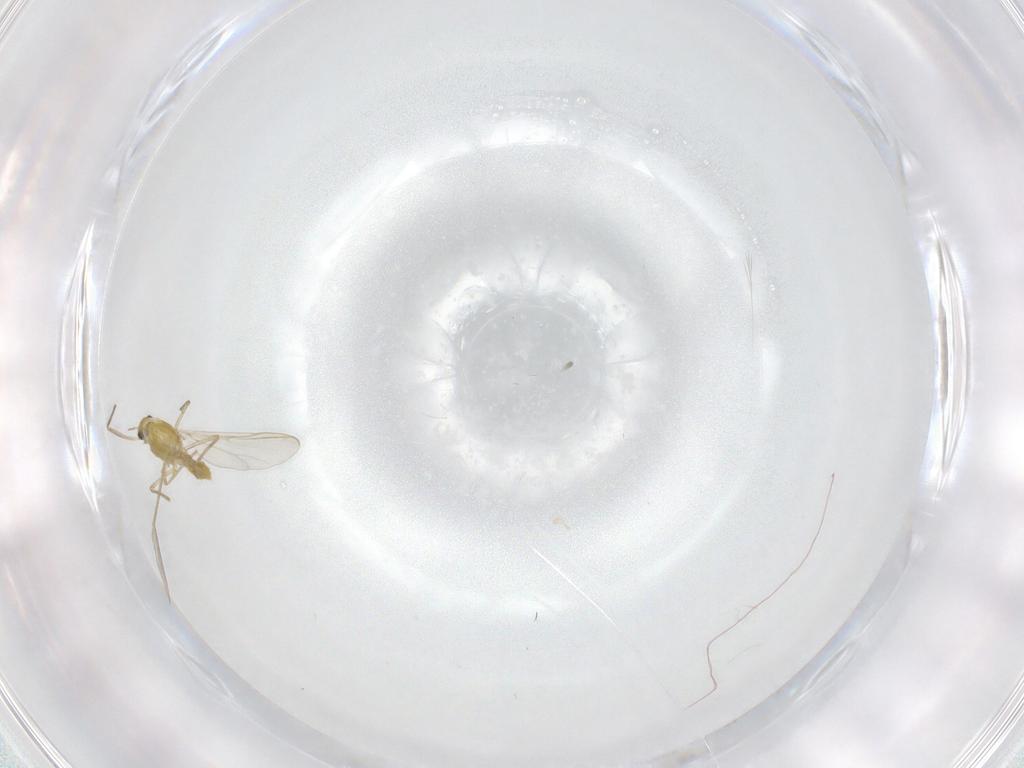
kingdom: Animalia
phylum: Arthropoda
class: Insecta
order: Diptera
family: Chironomidae
